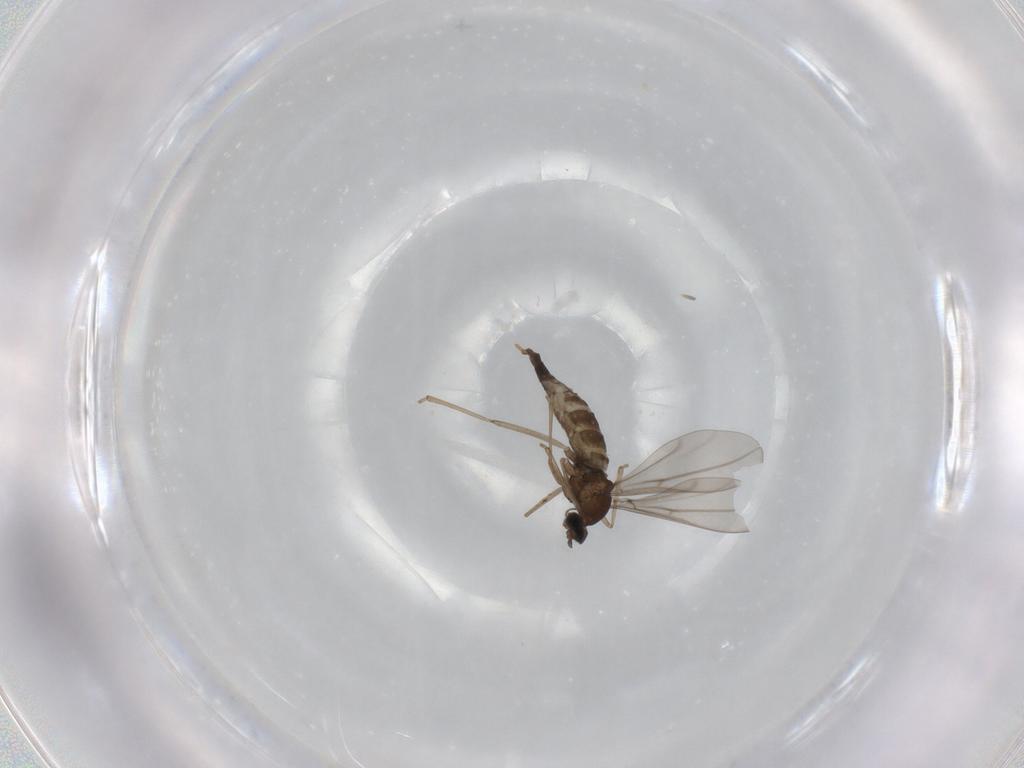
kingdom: Animalia
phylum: Arthropoda
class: Insecta
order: Diptera
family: Cecidomyiidae
